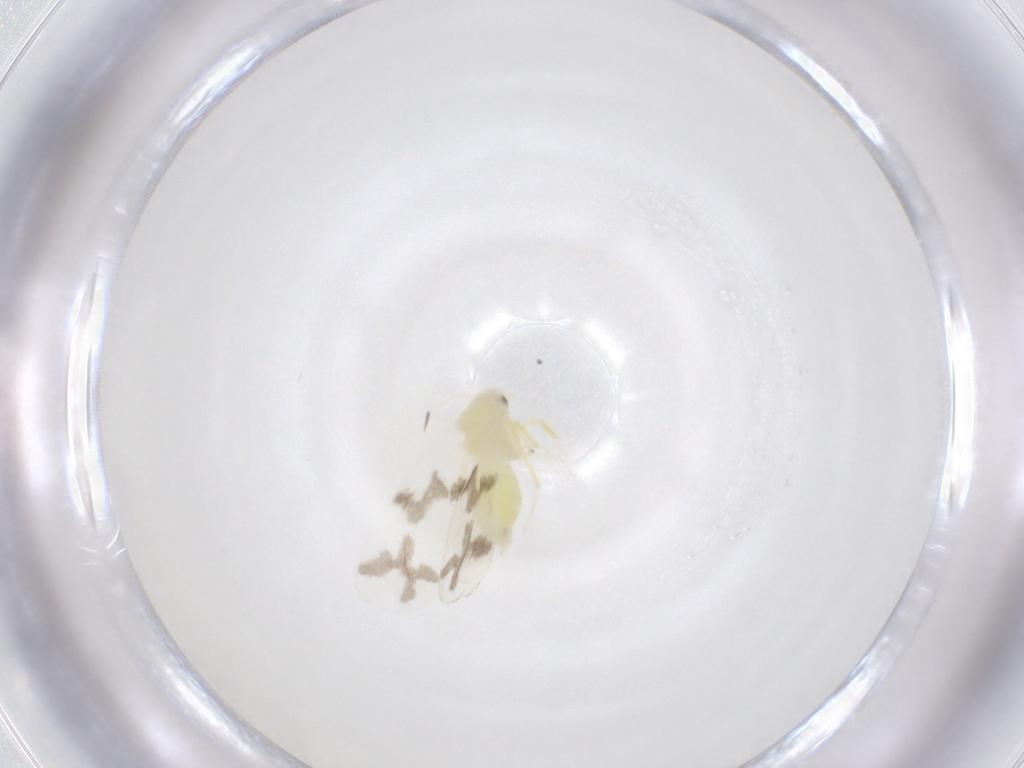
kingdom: Animalia
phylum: Arthropoda
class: Insecta
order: Hemiptera
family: Aleyrodidae
